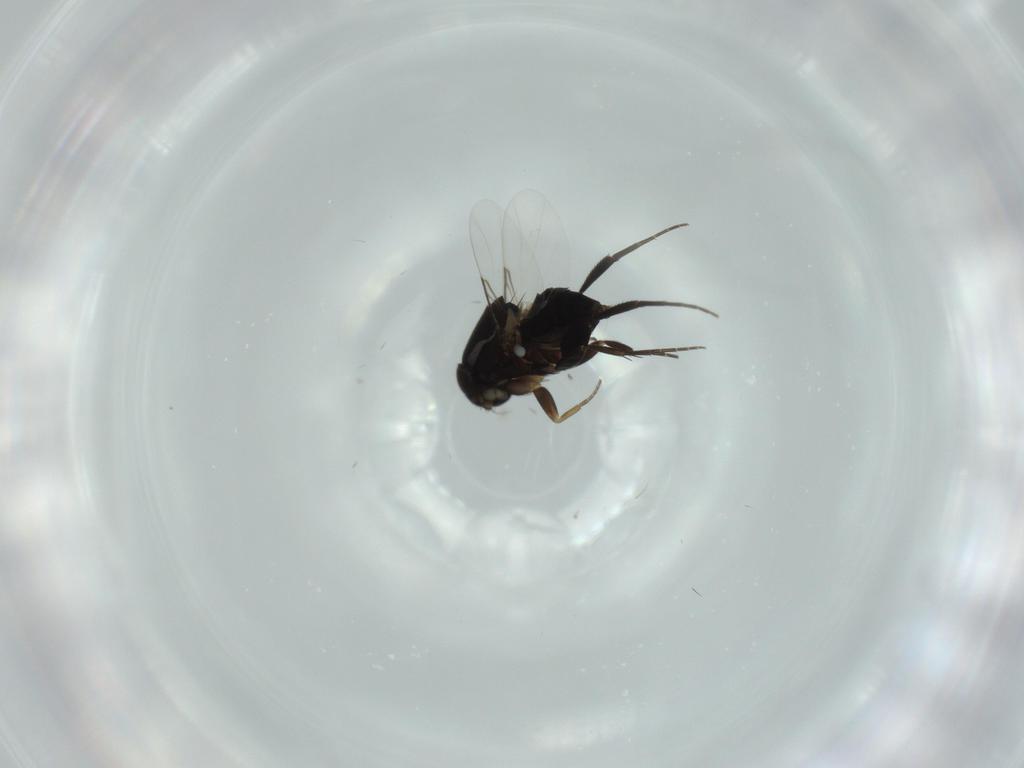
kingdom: Animalia
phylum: Arthropoda
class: Insecta
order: Diptera
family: Phoridae
